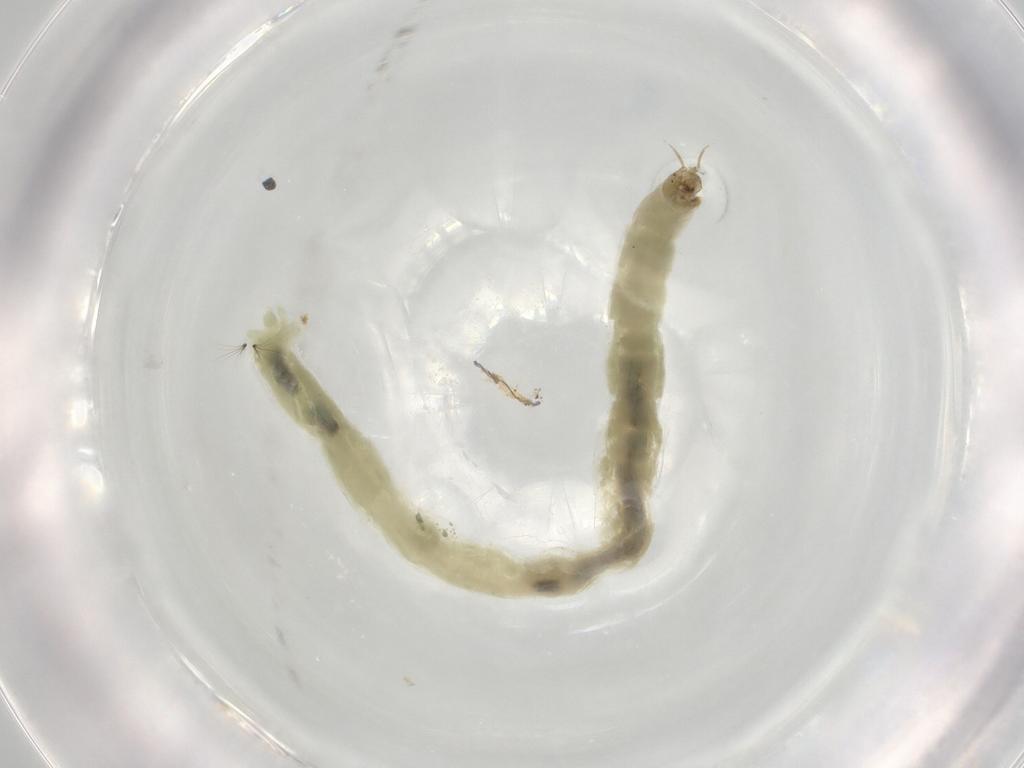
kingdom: Animalia
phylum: Arthropoda
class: Insecta
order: Diptera
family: Chironomidae
